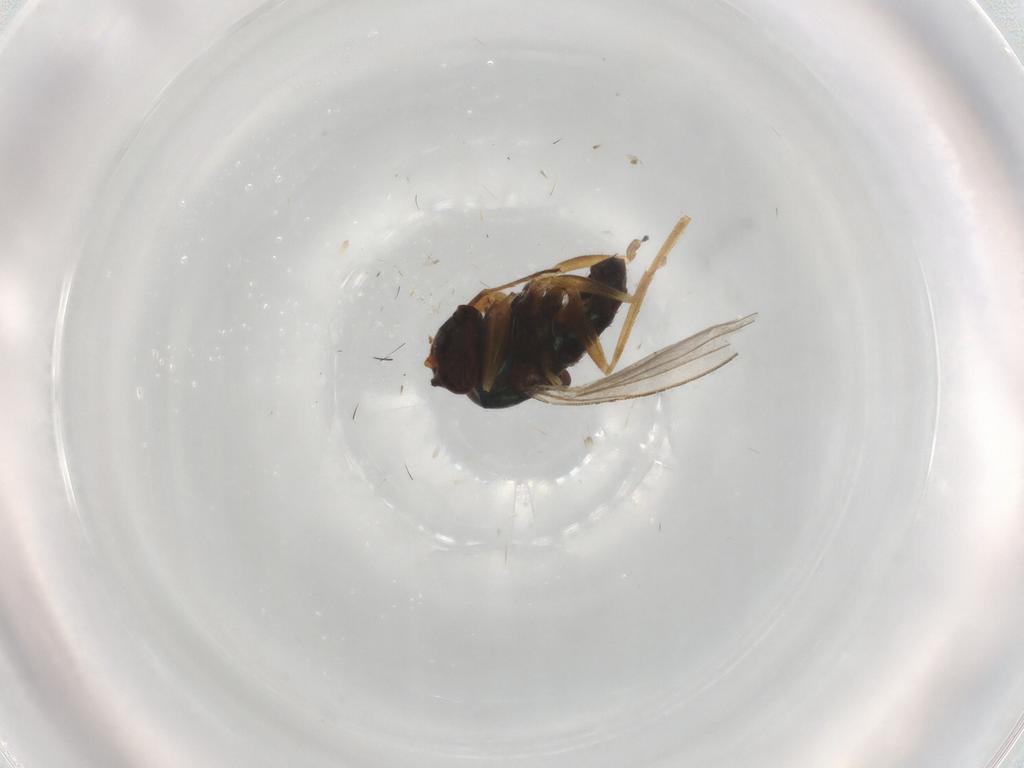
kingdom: Animalia
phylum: Arthropoda
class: Insecta
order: Diptera
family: Dolichopodidae
